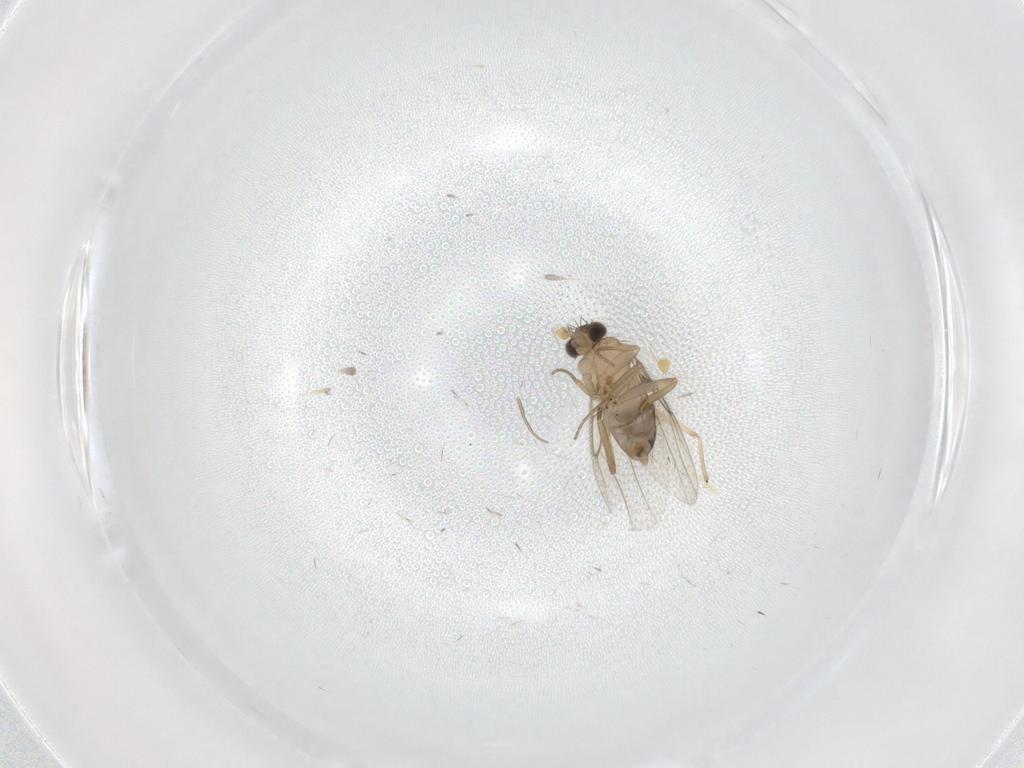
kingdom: Animalia
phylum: Arthropoda
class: Insecta
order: Diptera
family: Chironomidae
